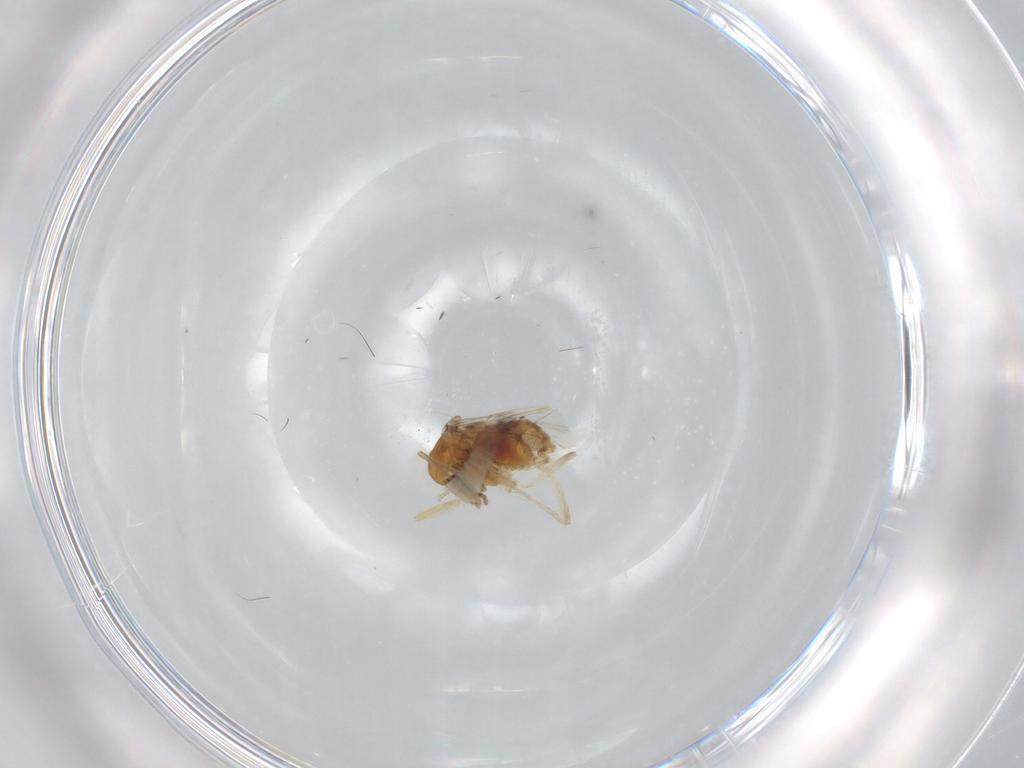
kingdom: Animalia
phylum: Arthropoda
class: Insecta
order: Diptera
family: Chironomidae
